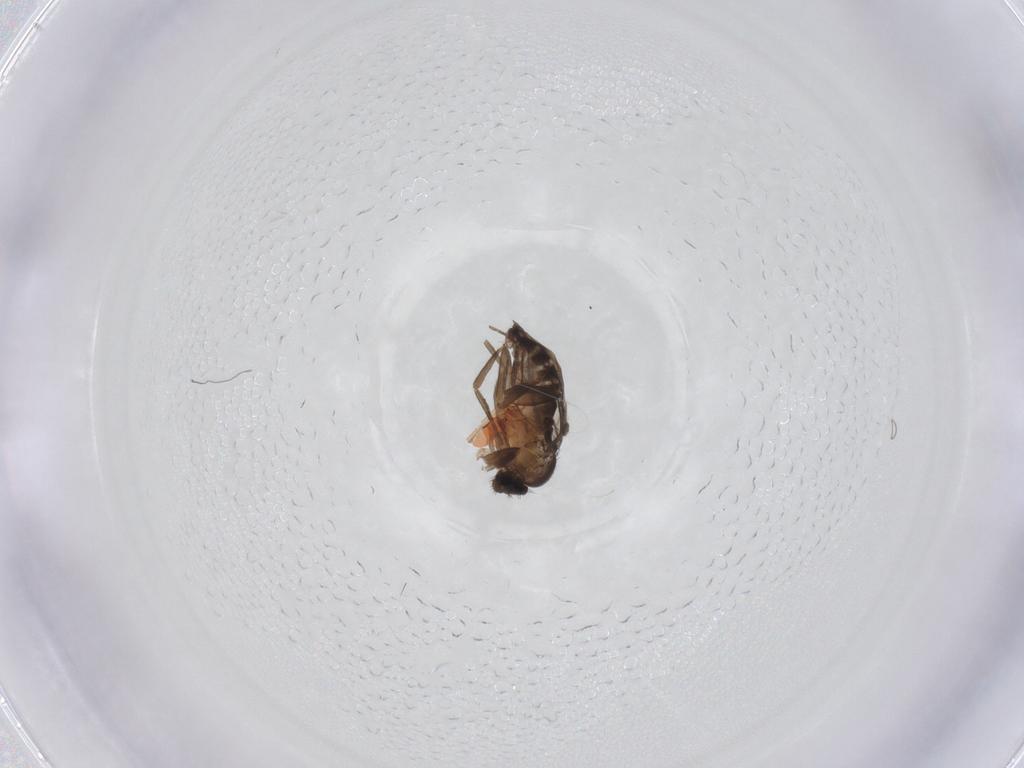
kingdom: Animalia
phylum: Arthropoda
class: Insecta
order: Diptera
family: Phoridae
